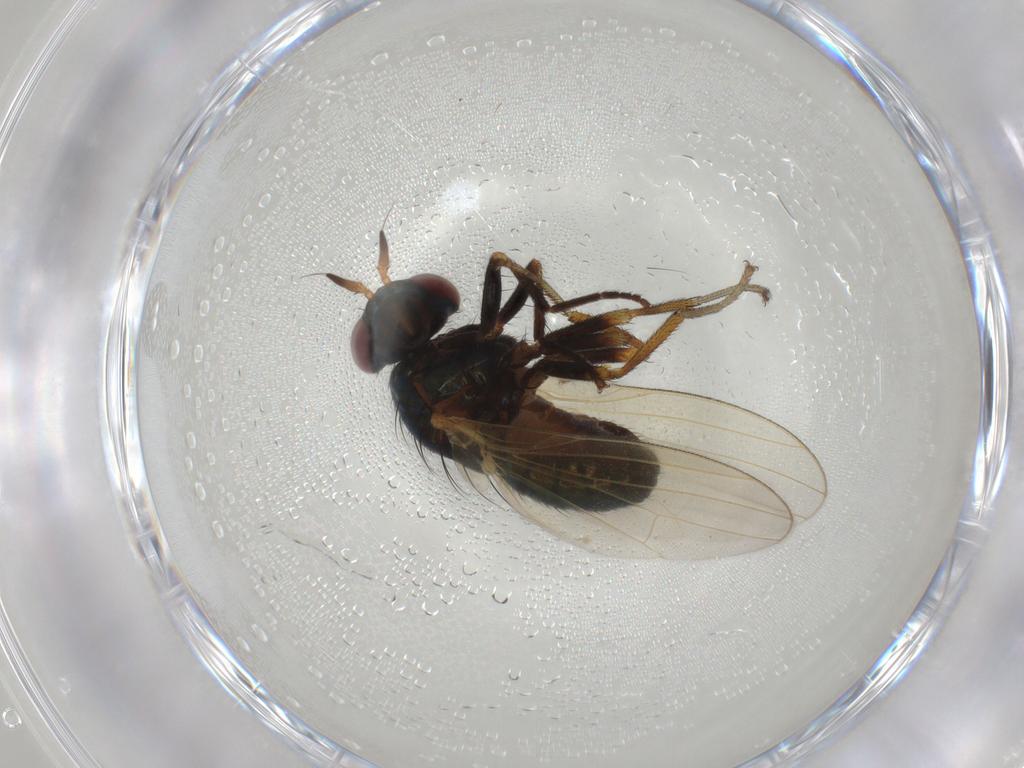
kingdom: Animalia
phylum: Arthropoda
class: Insecta
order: Diptera
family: Lauxaniidae
